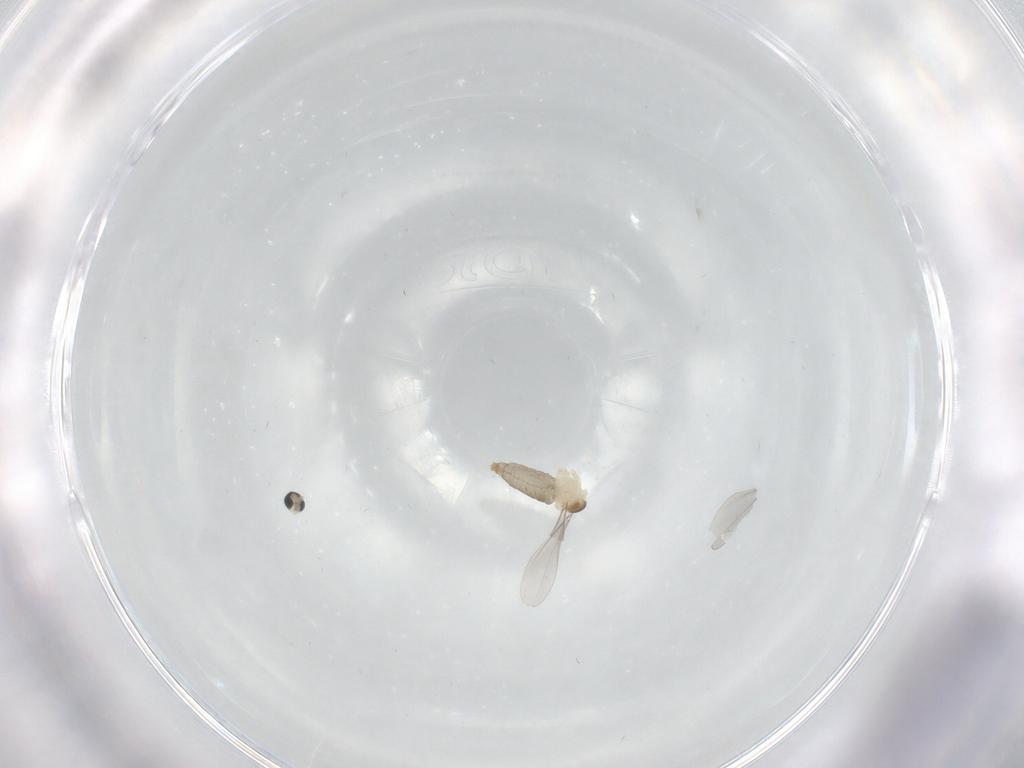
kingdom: Animalia
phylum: Arthropoda
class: Insecta
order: Diptera
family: Cecidomyiidae
